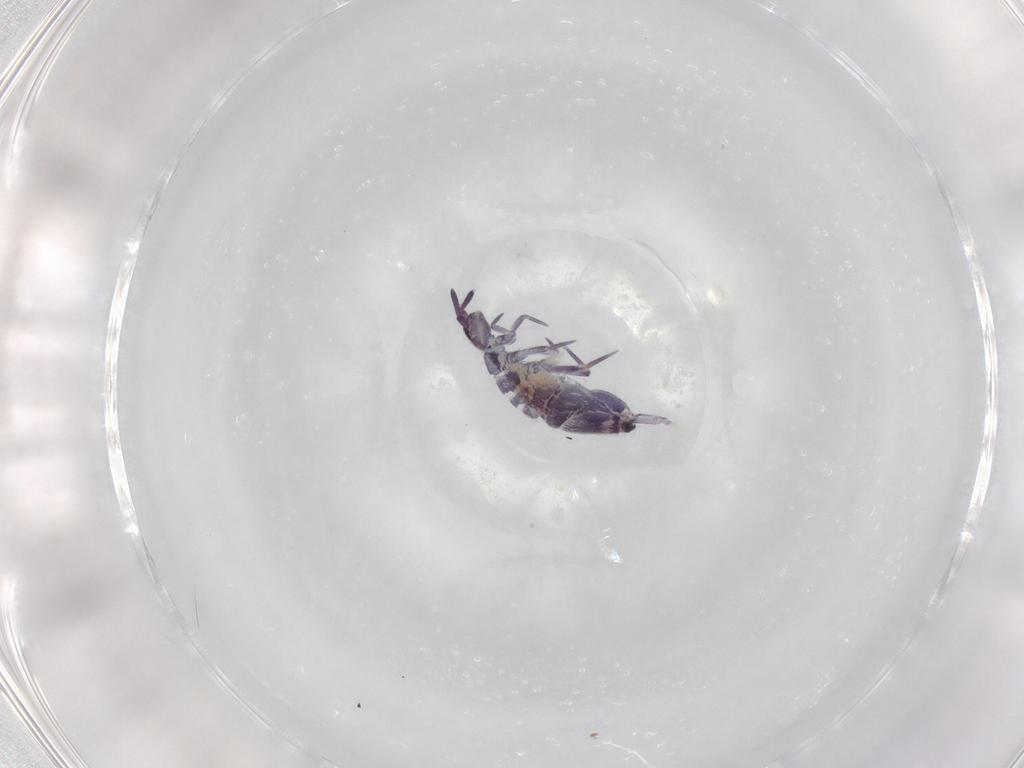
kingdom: Animalia
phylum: Arthropoda
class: Collembola
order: Entomobryomorpha
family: Entomobryidae
